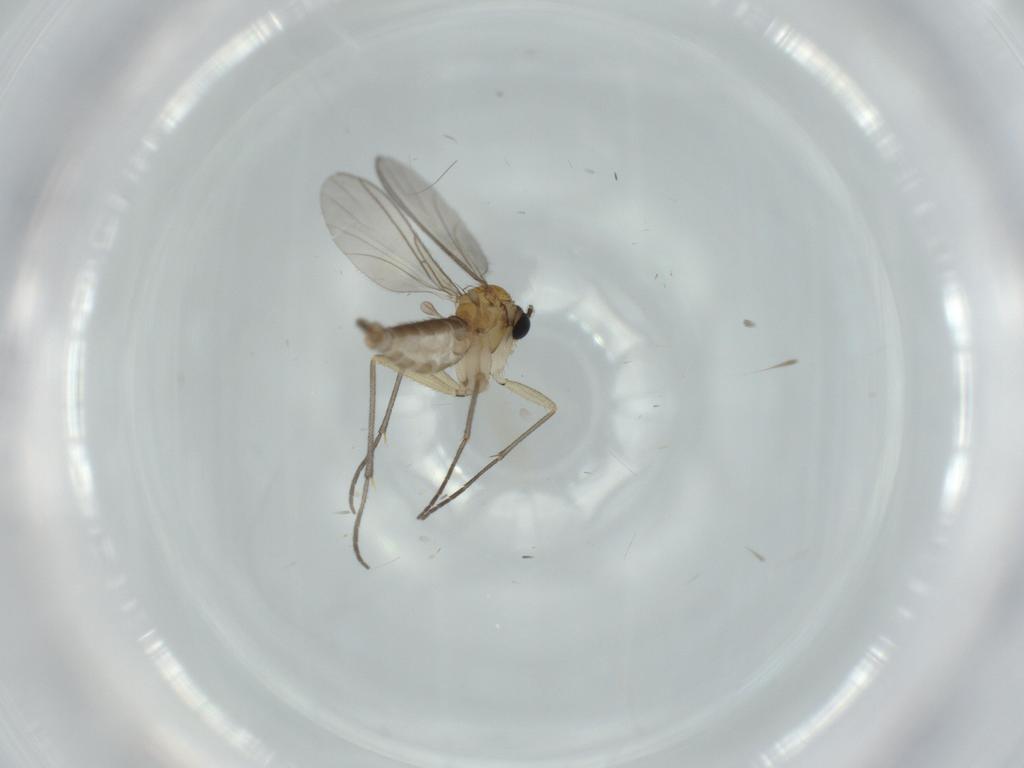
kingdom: Animalia
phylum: Arthropoda
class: Insecta
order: Diptera
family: Sciaridae
